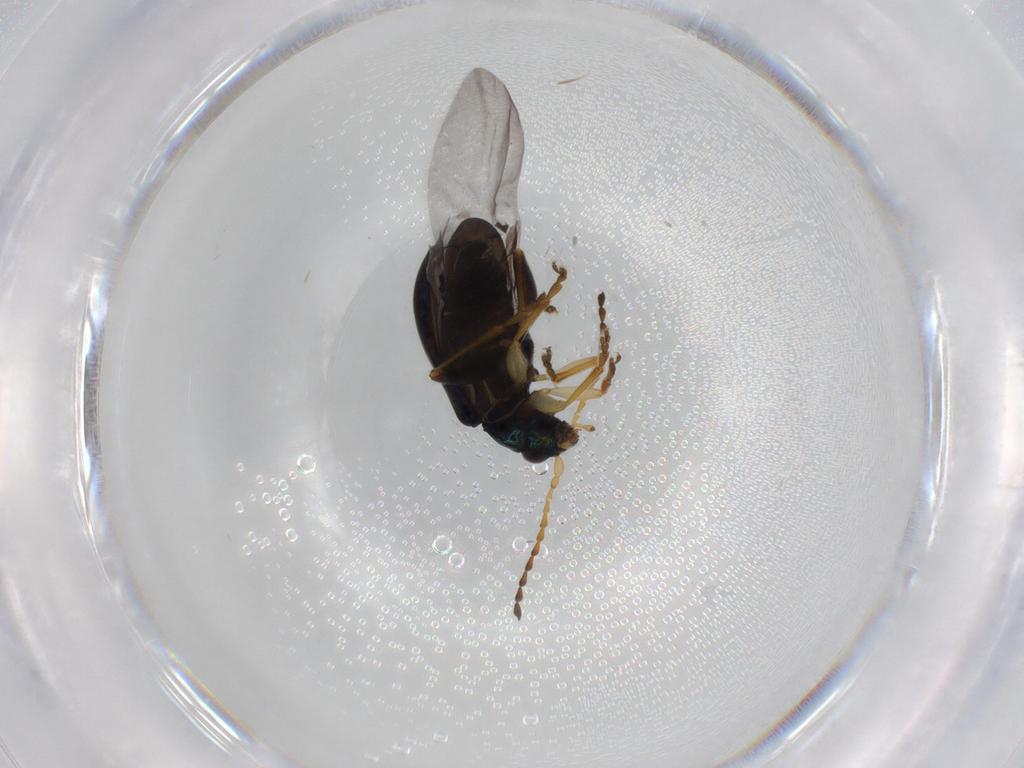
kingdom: Animalia
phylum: Arthropoda
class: Insecta
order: Coleoptera
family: Chrysomelidae
